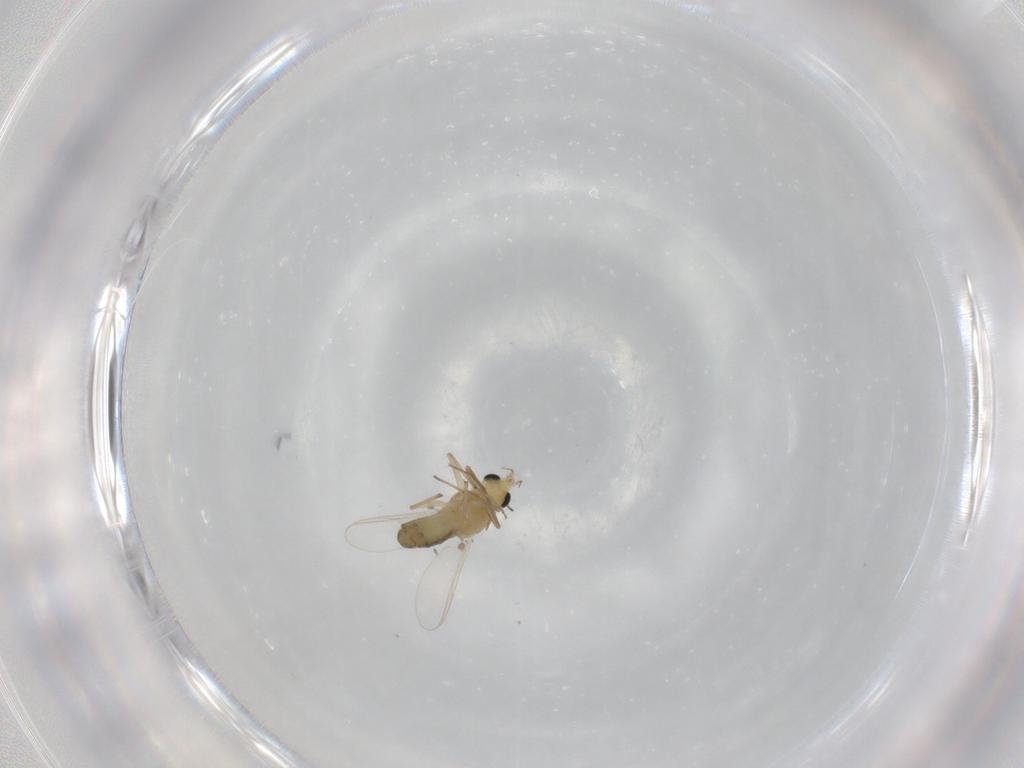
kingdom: Animalia
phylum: Arthropoda
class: Insecta
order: Diptera
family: Chironomidae
